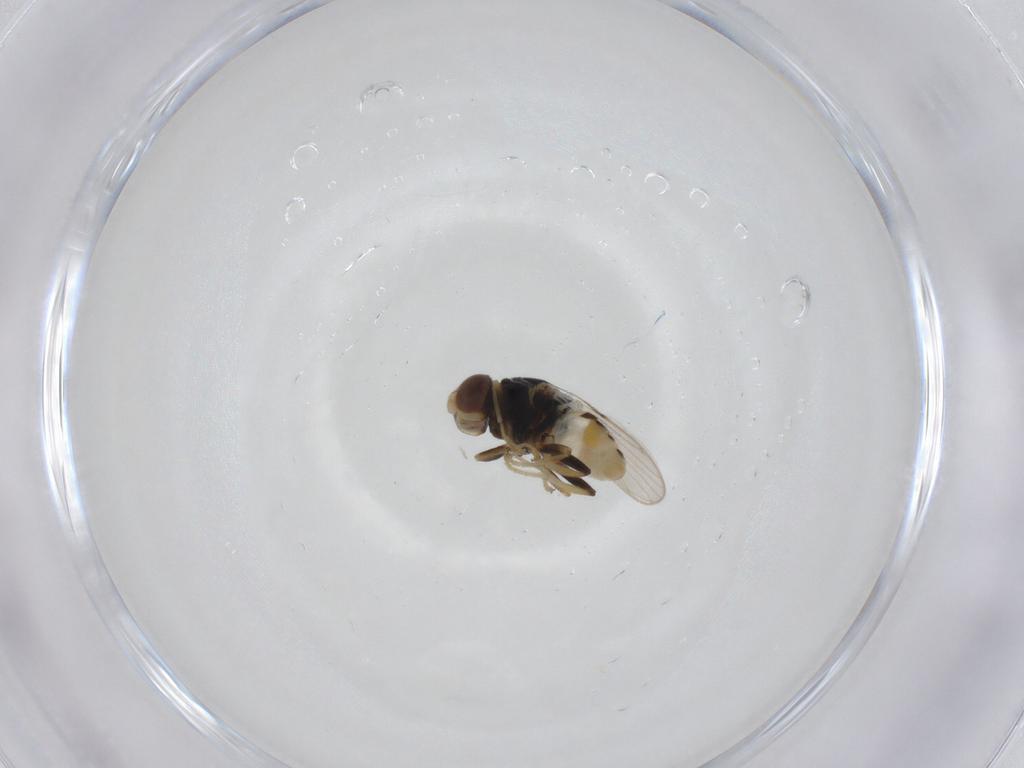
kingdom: Animalia
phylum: Arthropoda
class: Insecta
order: Diptera
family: Chloropidae
